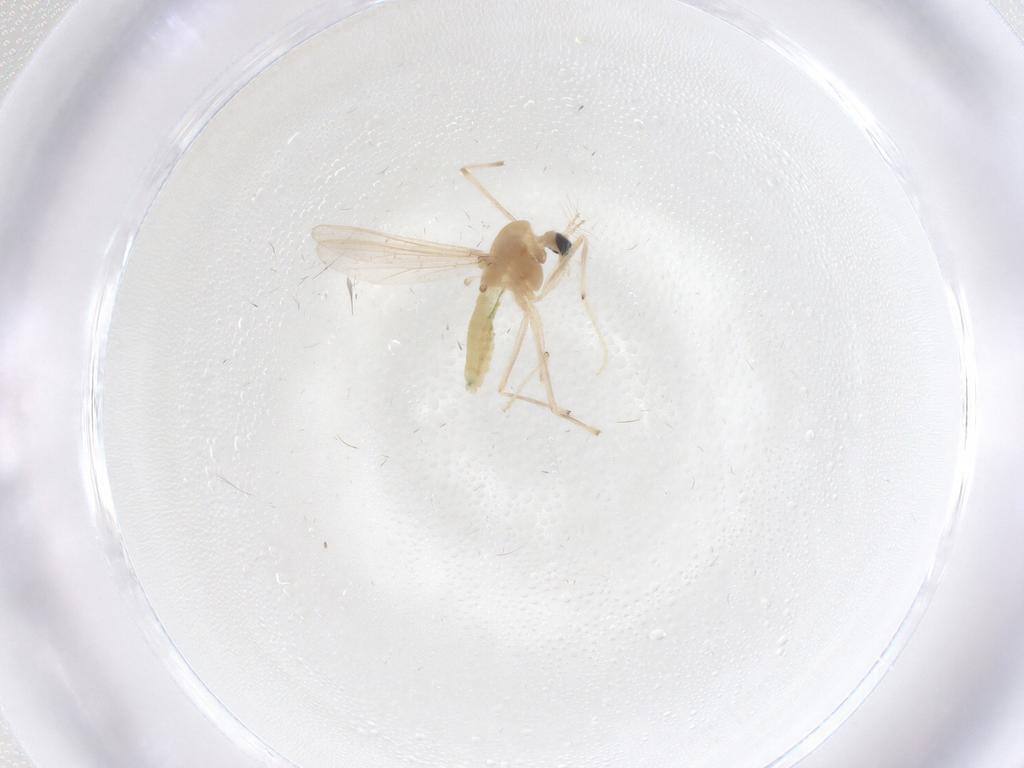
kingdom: Animalia
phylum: Arthropoda
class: Insecta
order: Diptera
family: Chironomidae
